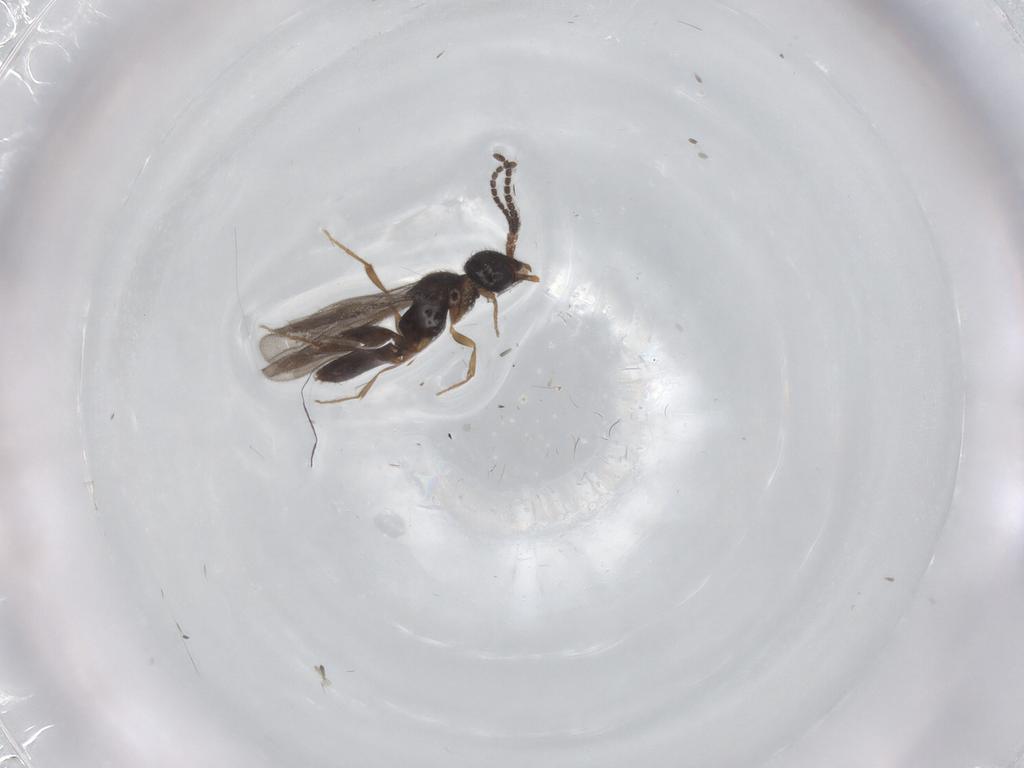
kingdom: Animalia
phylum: Arthropoda
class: Insecta
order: Hymenoptera
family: Bethylidae
